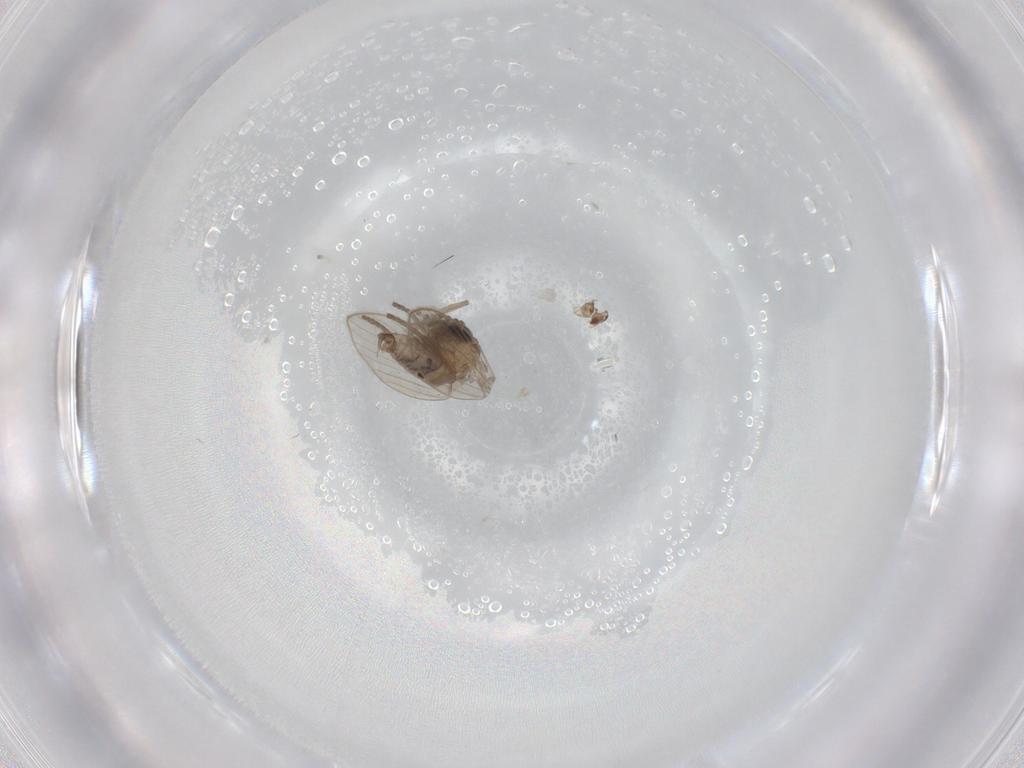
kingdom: Animalia
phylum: Arthropoda
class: Insecta
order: Diptera
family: Psychodidae
